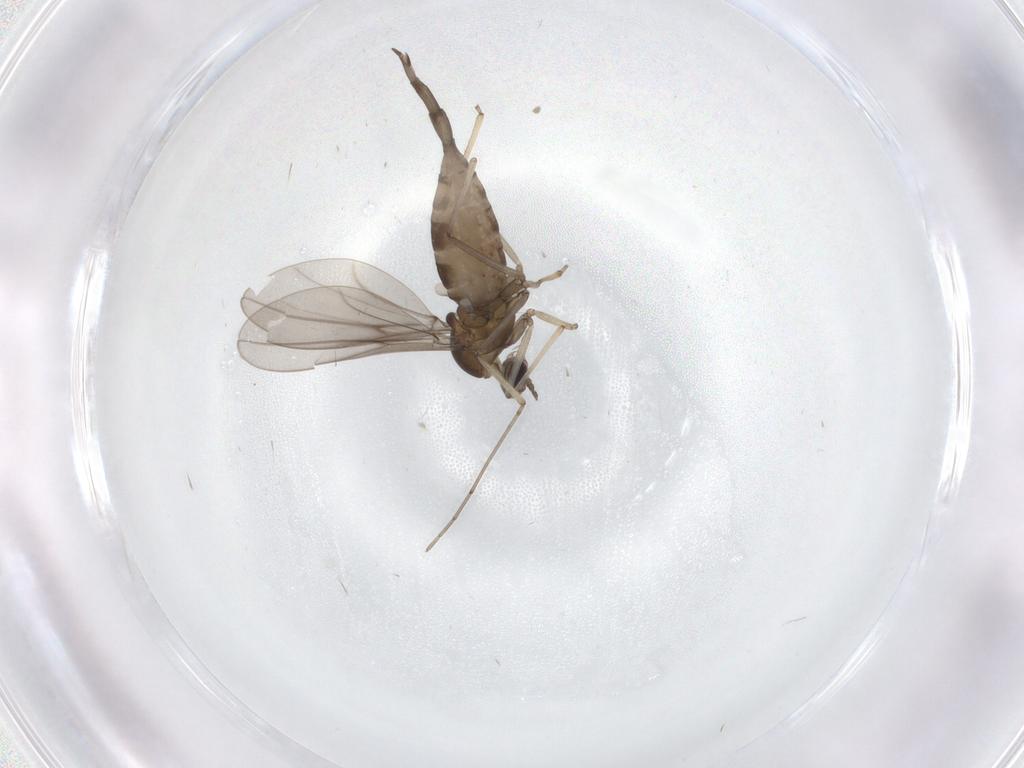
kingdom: Animalia
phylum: Arthropoda
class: Insecta
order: Diptera
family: Cecidomyiidae
